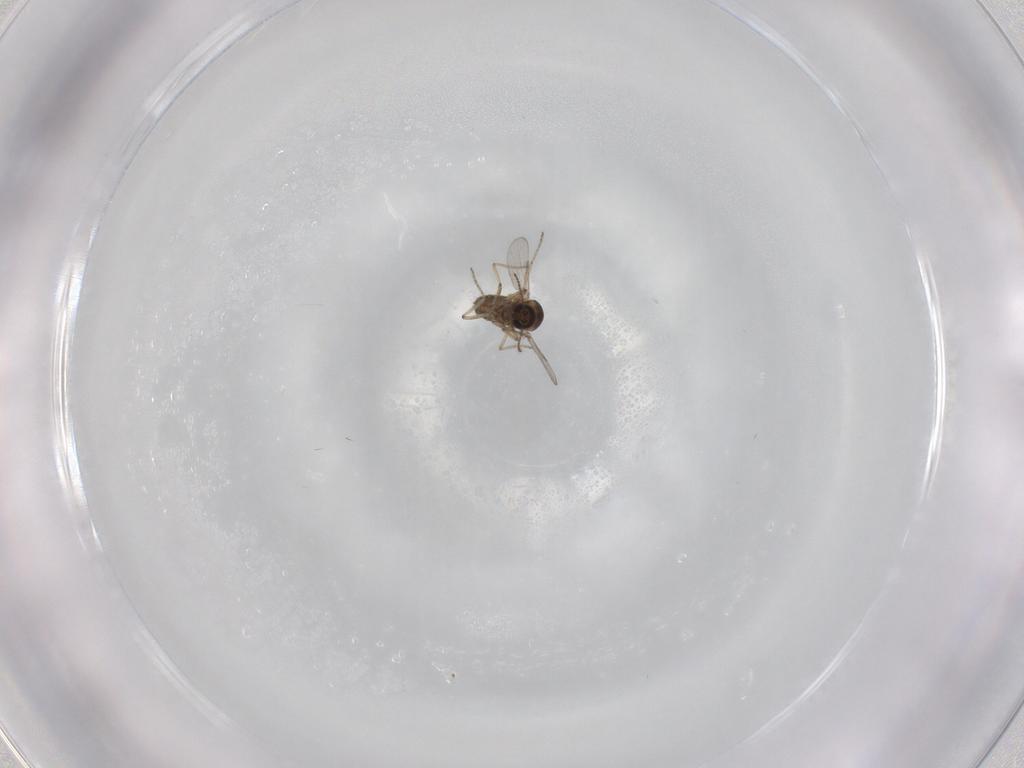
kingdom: Animalia
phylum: Arthropoda
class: Insecta
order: Diptera
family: Ceratopogonidae
